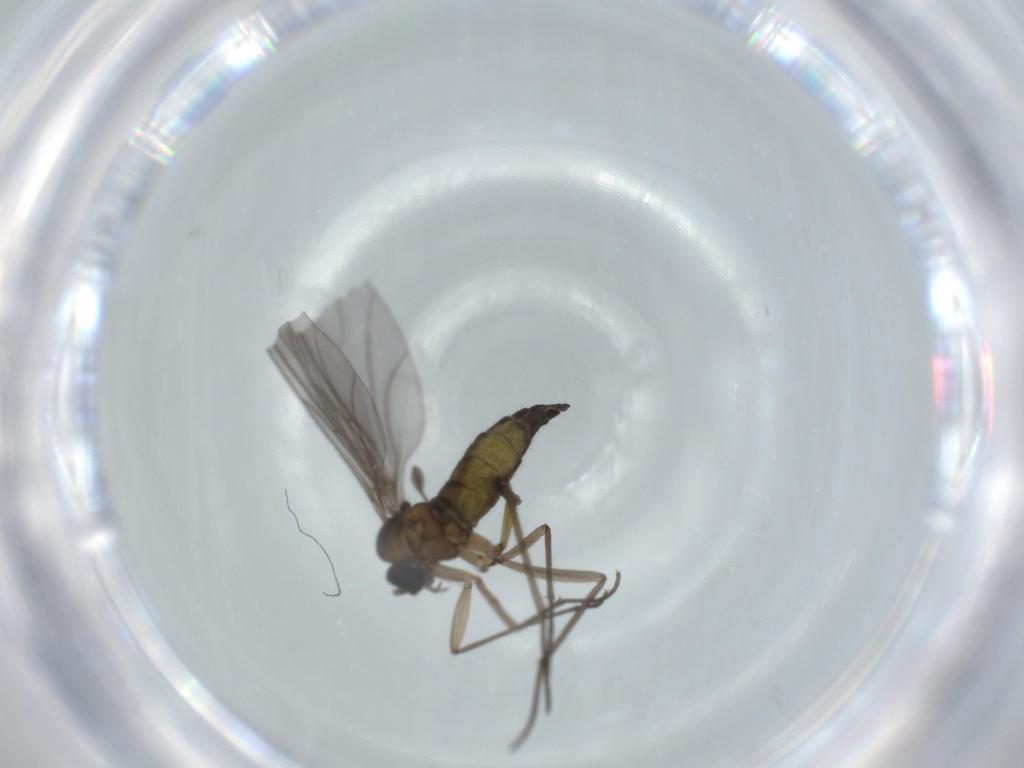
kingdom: Animalia
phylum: Arthropoda
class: Insecta
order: Diptera
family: Sciaridae
